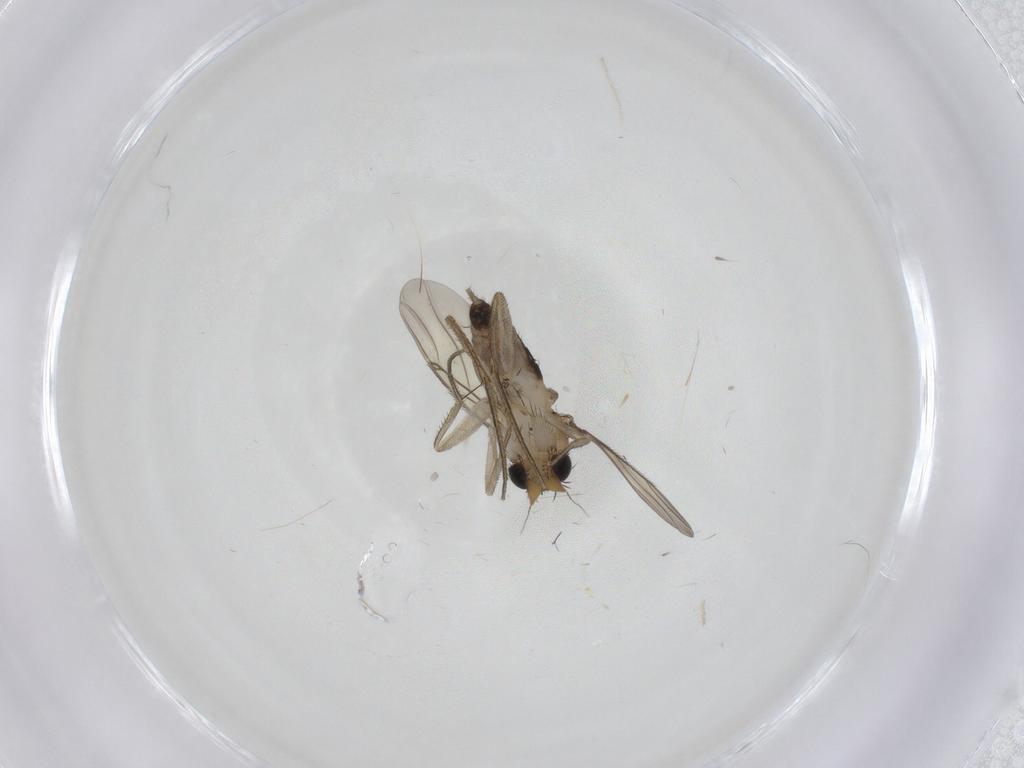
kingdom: Animalia
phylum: Arthropoda
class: Insecta
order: Diptera
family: Phoridae
